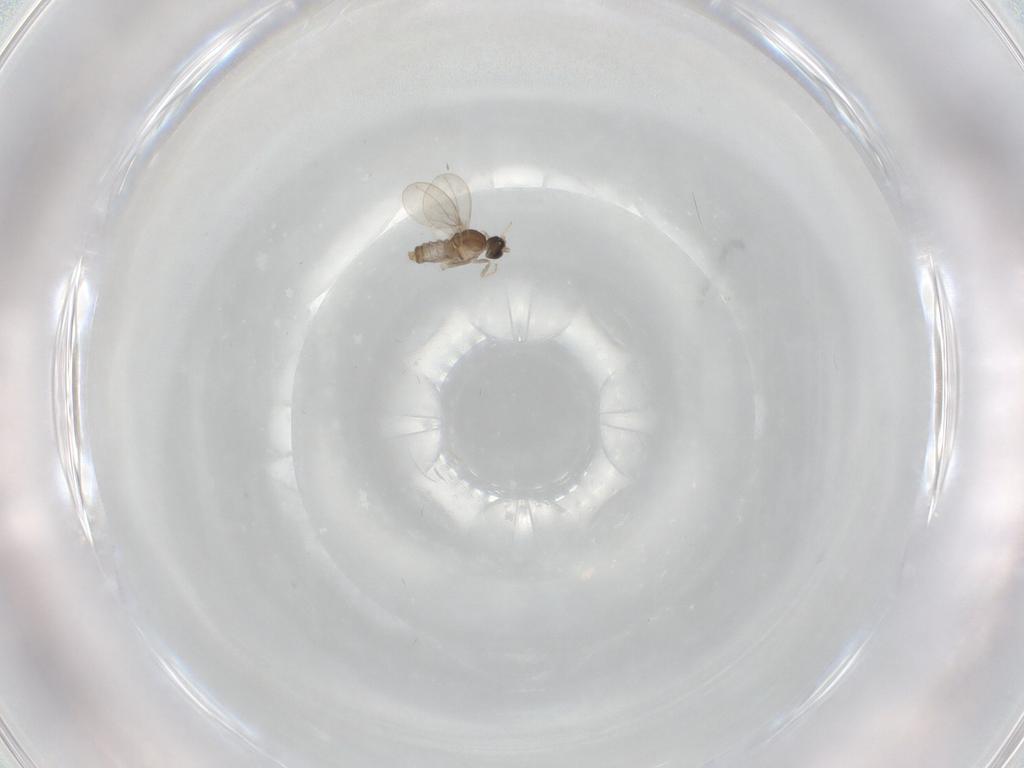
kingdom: Animalia
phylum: Arthropoda
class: Insecta
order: Diptera
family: Cecidomyiidae
